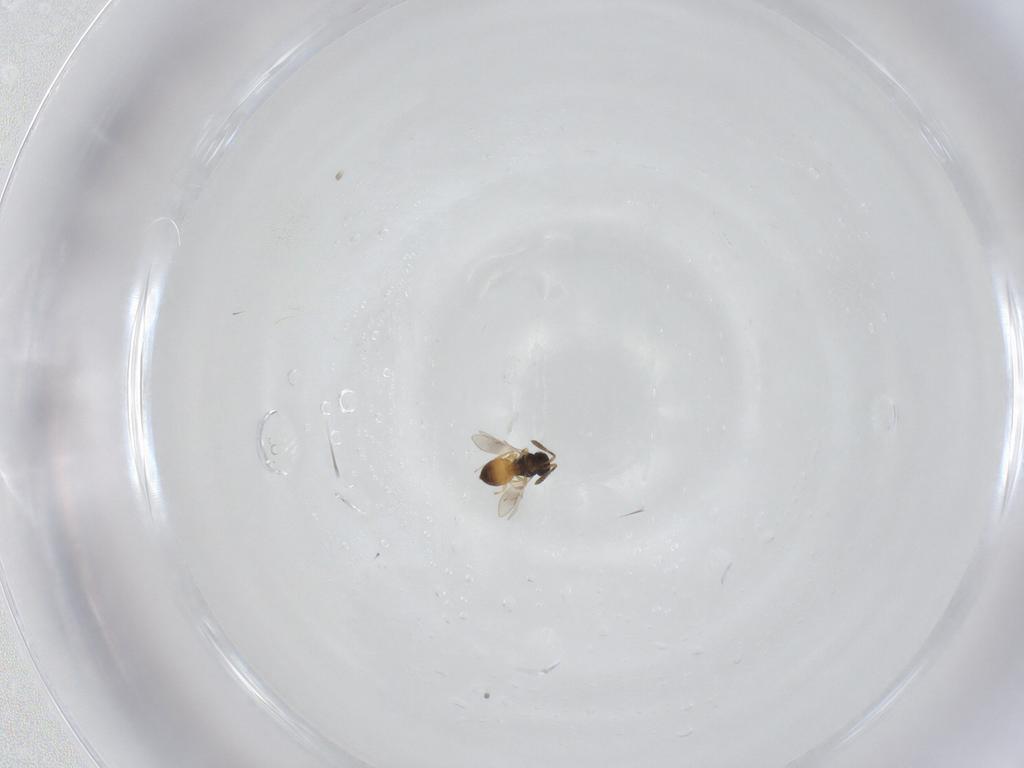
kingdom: Animalia
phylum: Arthropoda
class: Insecta
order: Hymenoptera
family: Scelionidae
